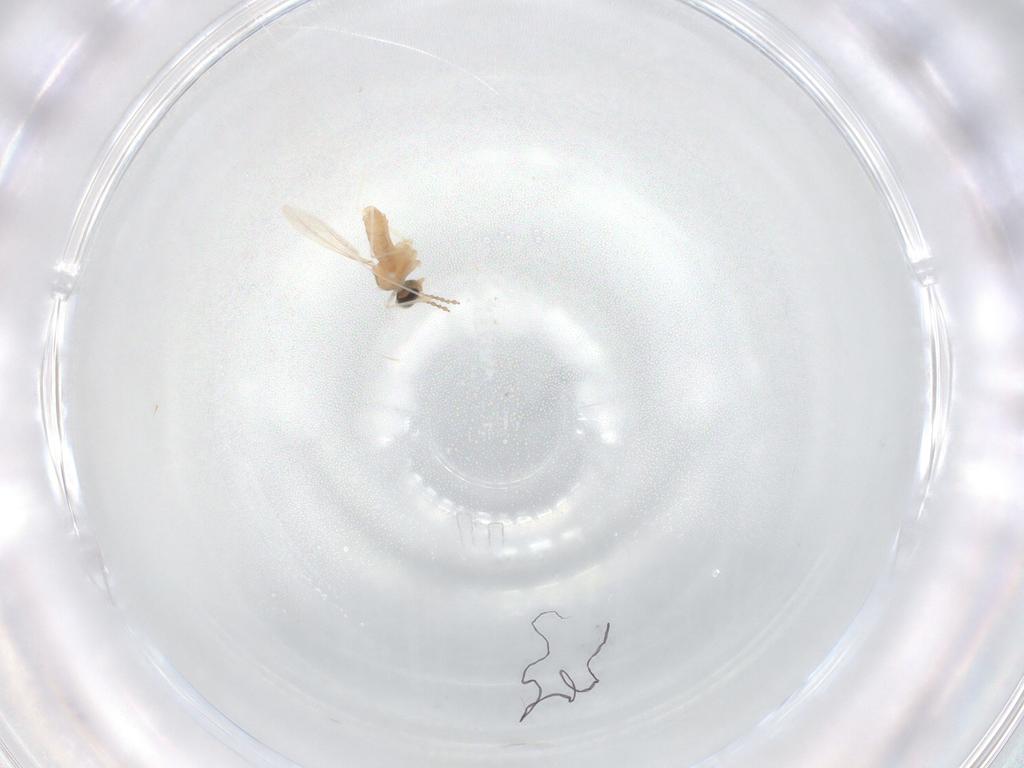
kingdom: Animalia
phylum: Arthropoda
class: Insecta
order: Diptera
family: Cecidomyiidae
